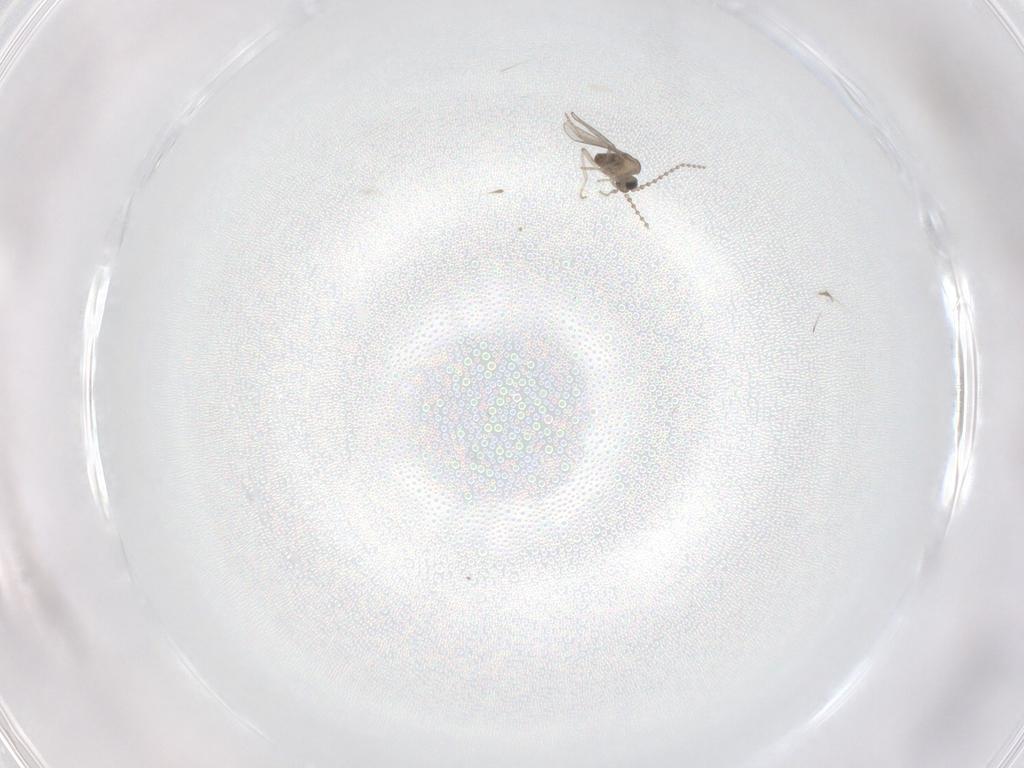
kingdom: Animalia
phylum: Arthropoda
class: Insecta
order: Diptera
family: Cecidomyiidae
